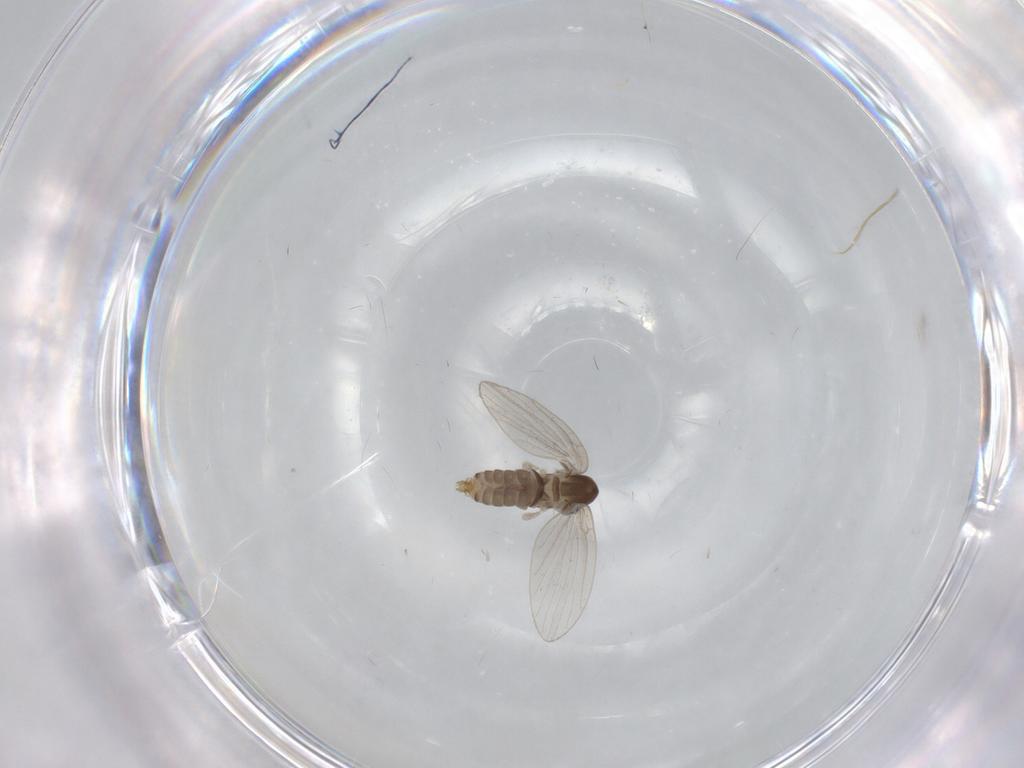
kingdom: Animalia
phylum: Arthropoda
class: Insecta
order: Diptera
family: Psychodidae
